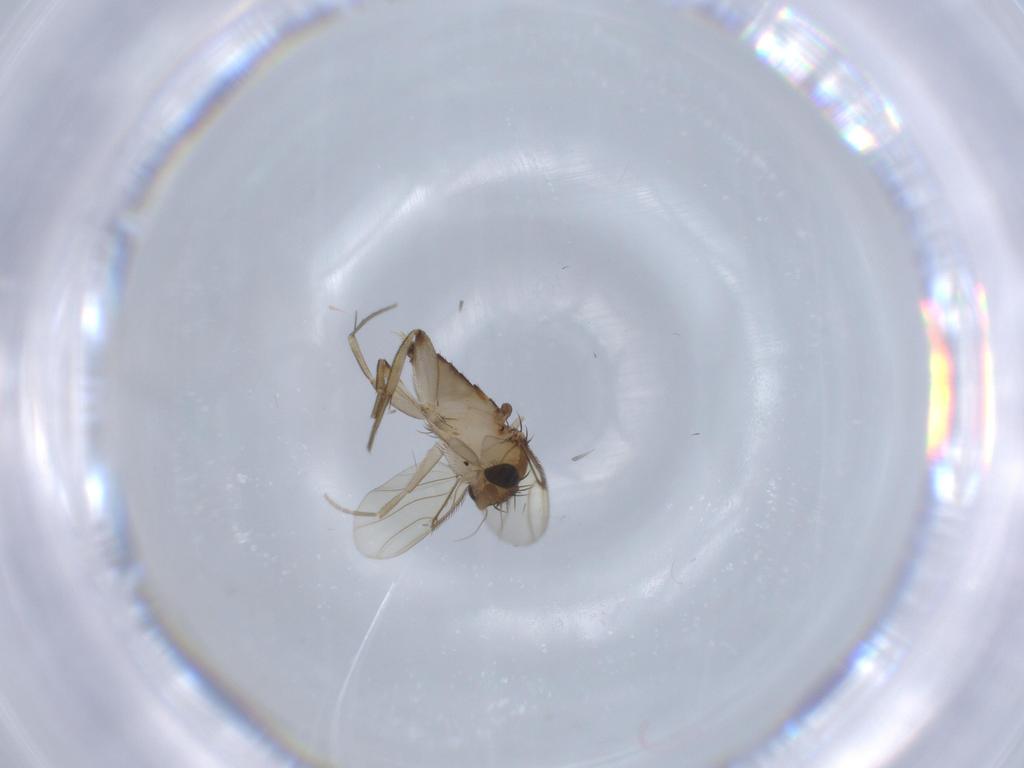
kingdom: Animalia
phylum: Arthropoda
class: Insecta
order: Diptera
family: Phoridae
